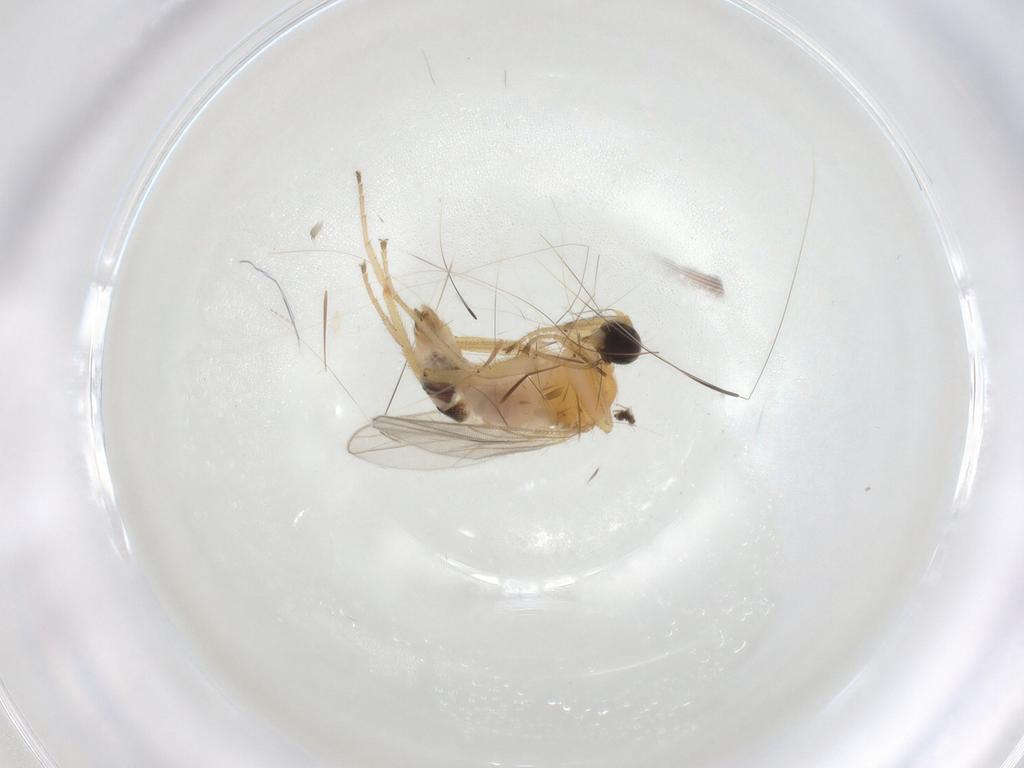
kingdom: Animalia
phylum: Arthropoda
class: Insecta
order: Diptera
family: Hybotidae
